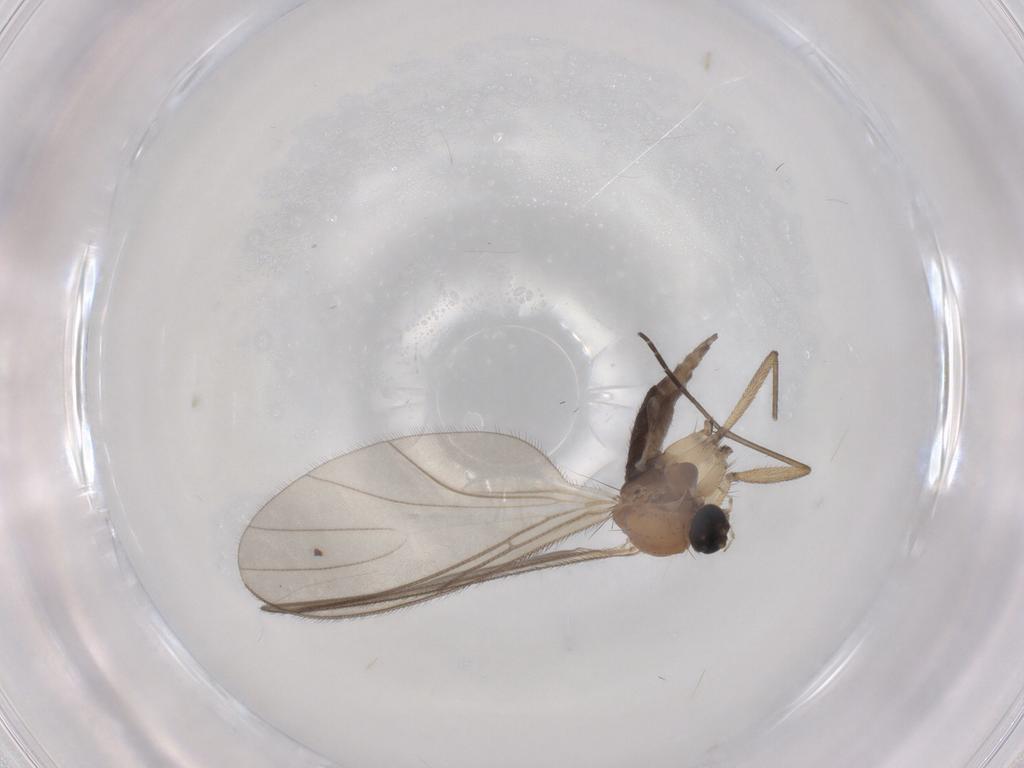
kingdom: Animalia
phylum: Arthropoda
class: Insecta
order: Diptera
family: Sciaridae
